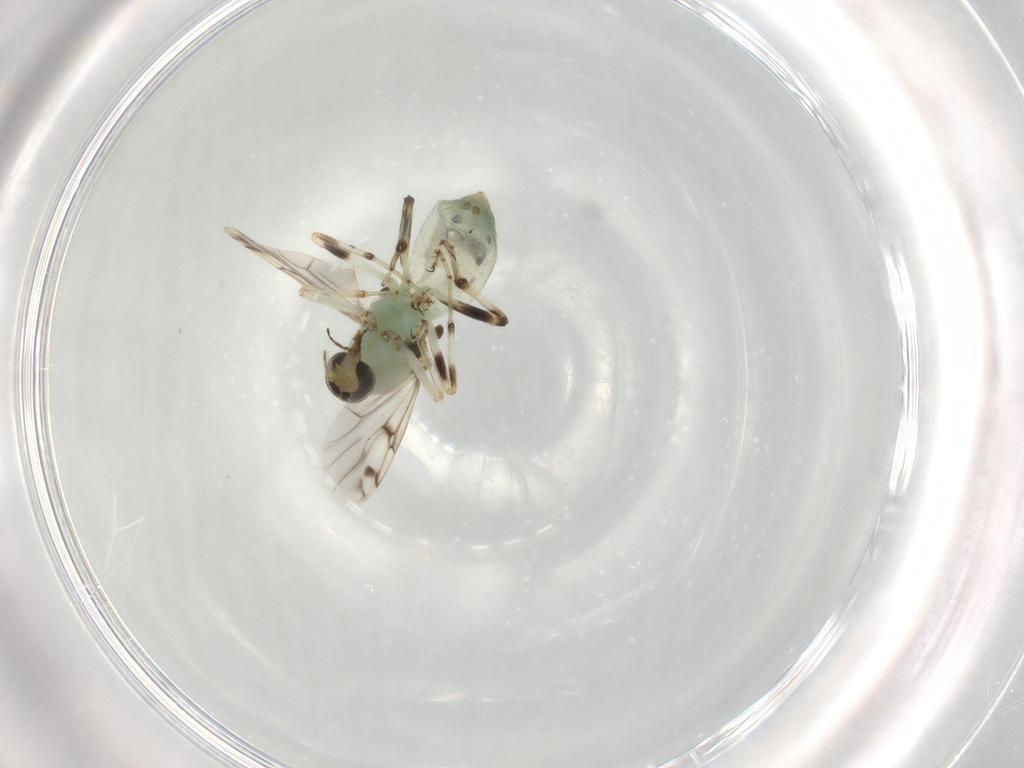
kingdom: Animalia
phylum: Arthropoda
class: Insecta
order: Diptera
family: Ceratopogonidae
